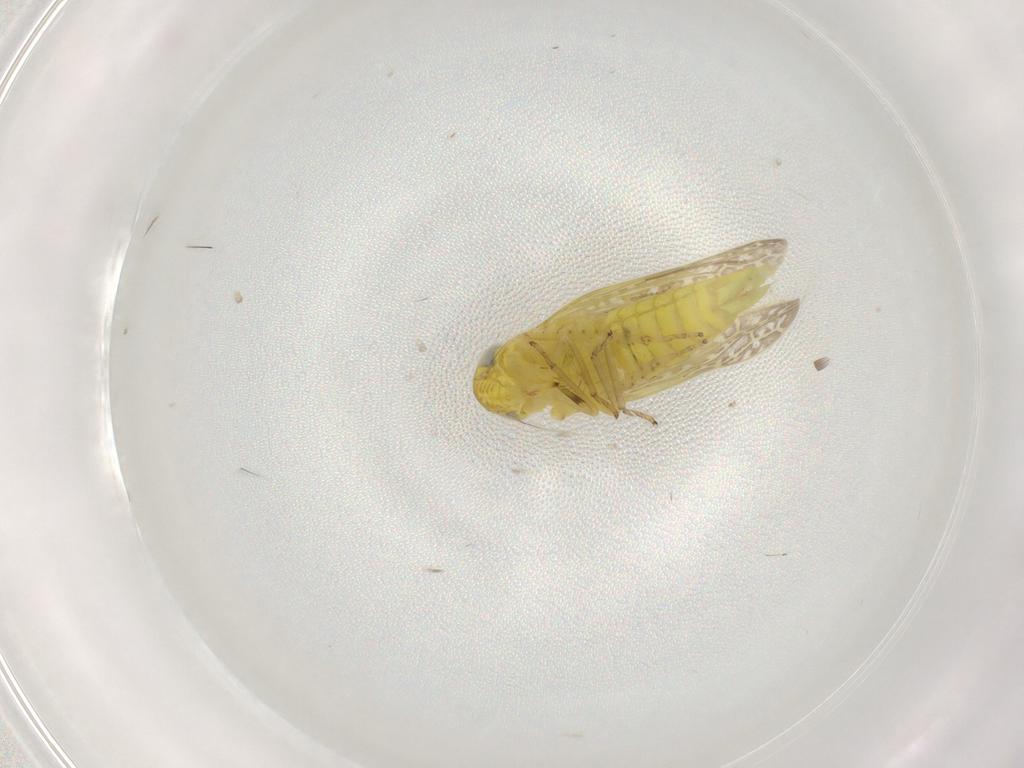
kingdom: Animalia
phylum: Arthropoda
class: Insecta
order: Hemiptera
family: Cicadellidae
